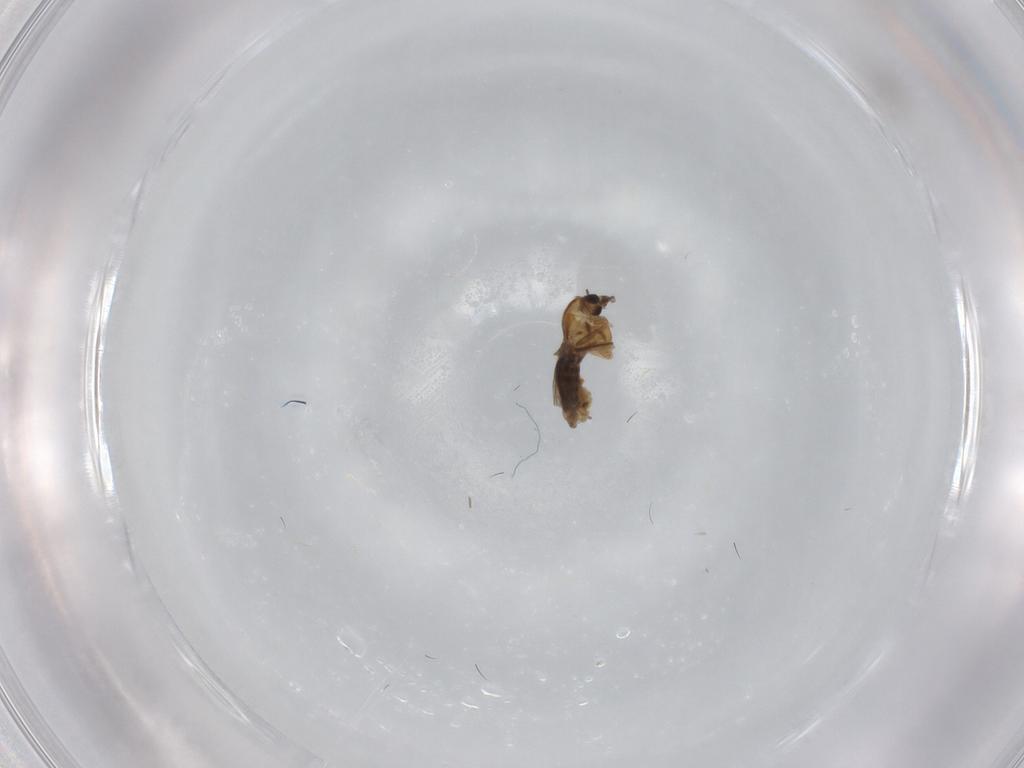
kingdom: Animalia
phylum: Arthropoda
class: Insecta
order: Diptera
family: Chironomidae
